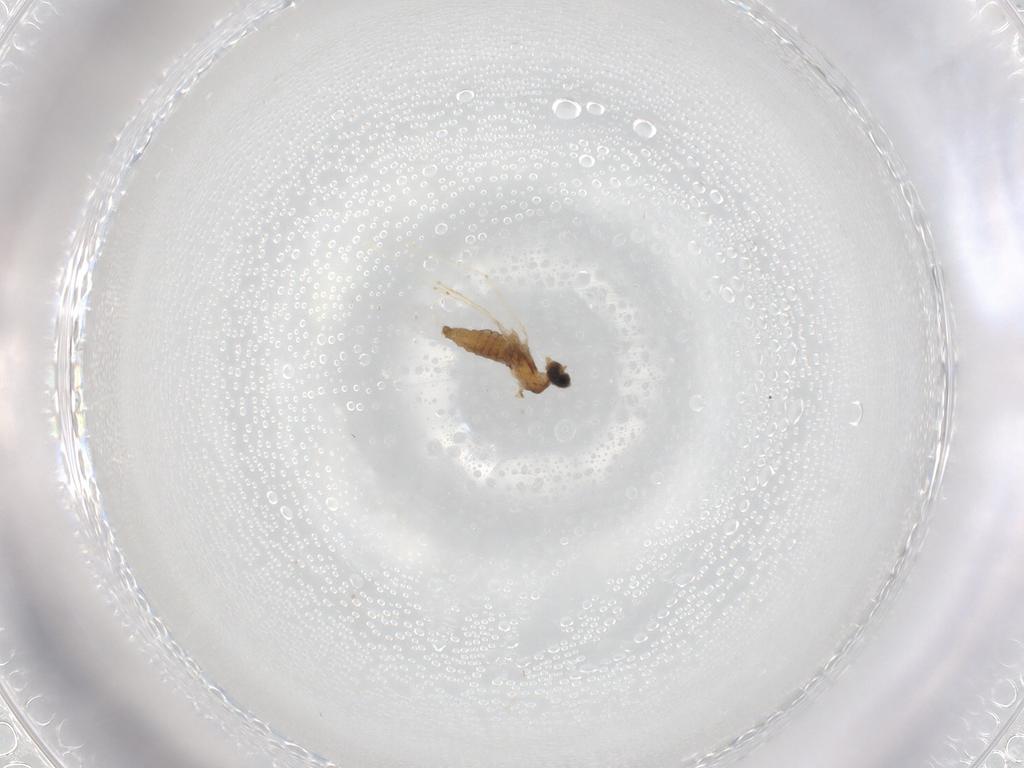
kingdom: Animalia
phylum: Arthropoda
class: Insecta
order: Diptera
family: Cecidomyiidae
